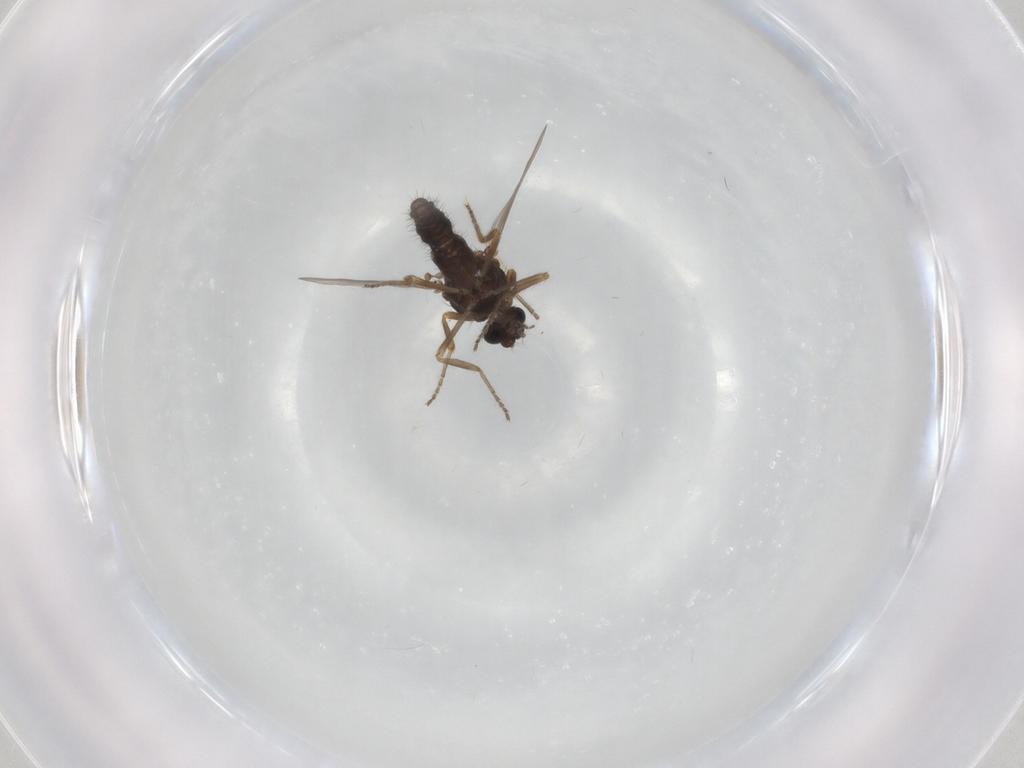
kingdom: Animalia
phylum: Arthropoda
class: Insecta
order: Diptera
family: Ceratopogonidae
